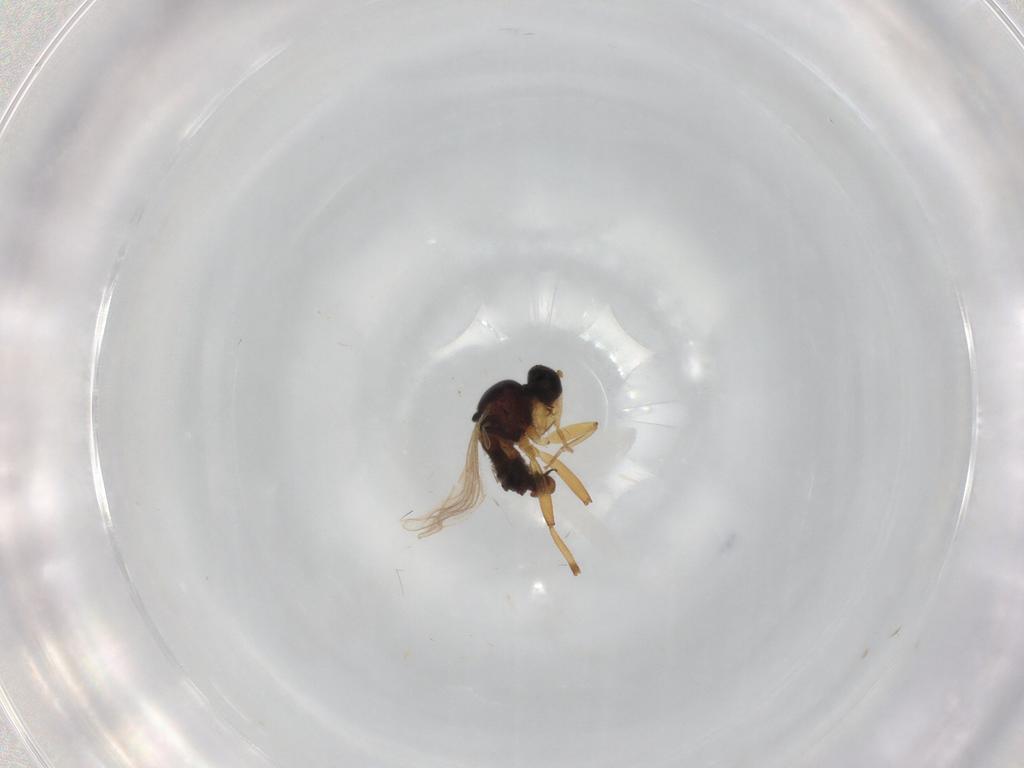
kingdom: Animalia
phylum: Arthropoda
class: Insecta
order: Diptera
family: Hybotidae
